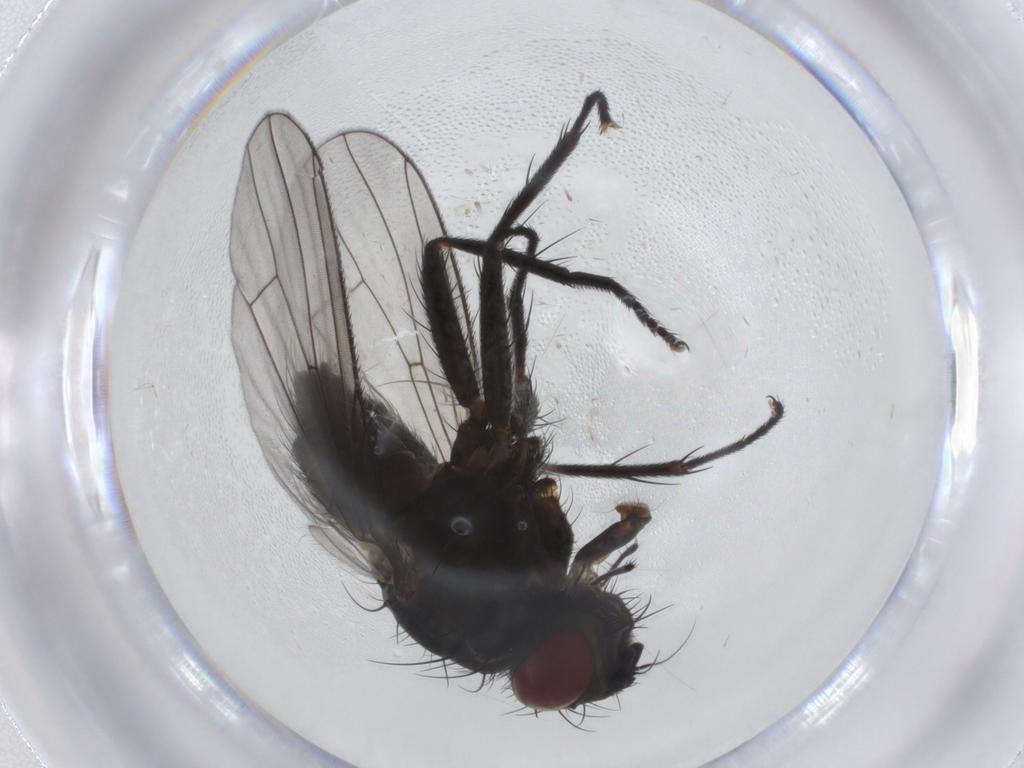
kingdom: Animalia
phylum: Arthropoda
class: Insecta
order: Diptera
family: Muscidae
